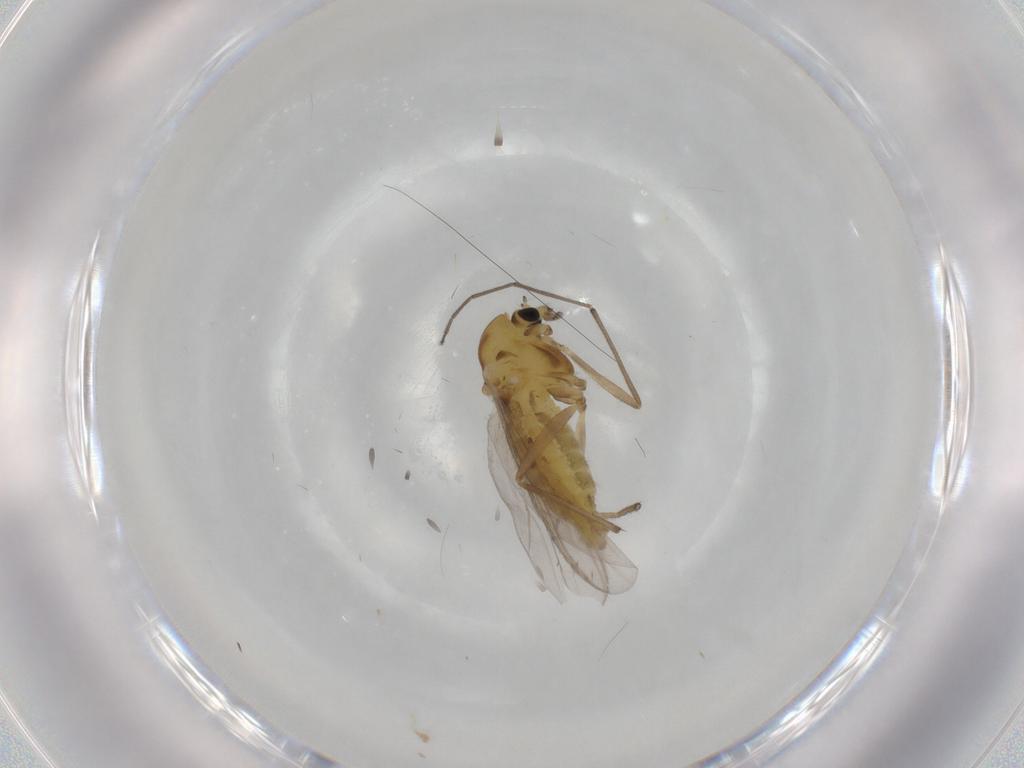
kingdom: Animalia
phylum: Arthropoda
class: Insecta
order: Diptera
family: Chironomidae
